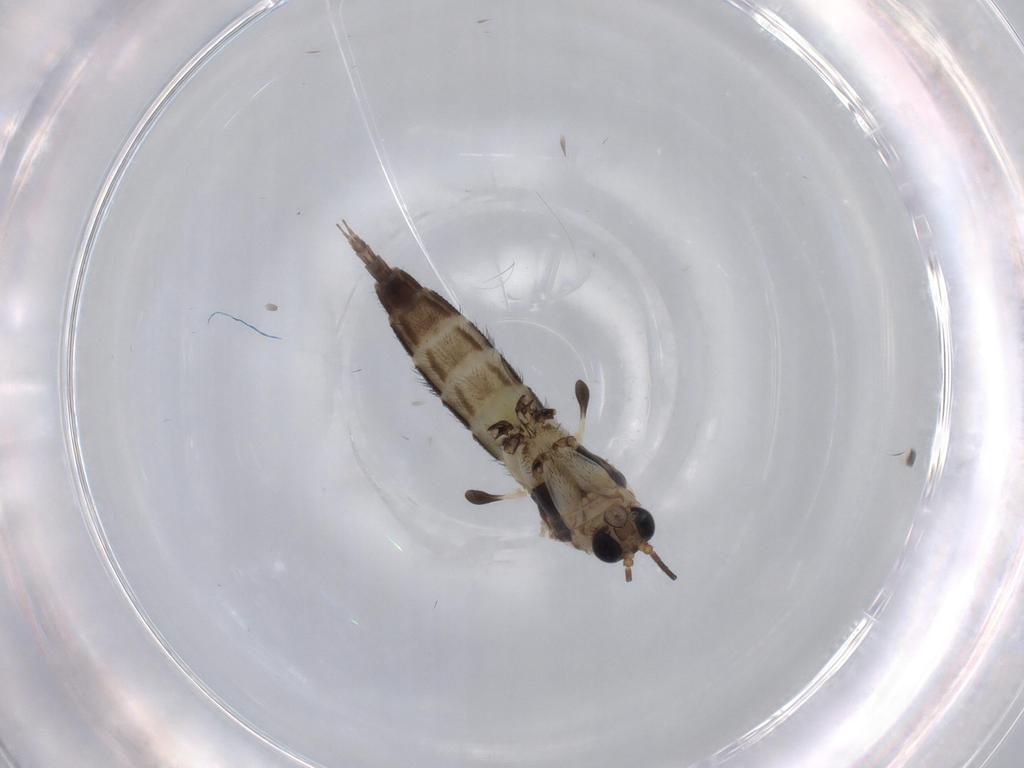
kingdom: Animalia
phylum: Arthropoda
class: Insecta
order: Diptera
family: Sciaridae
